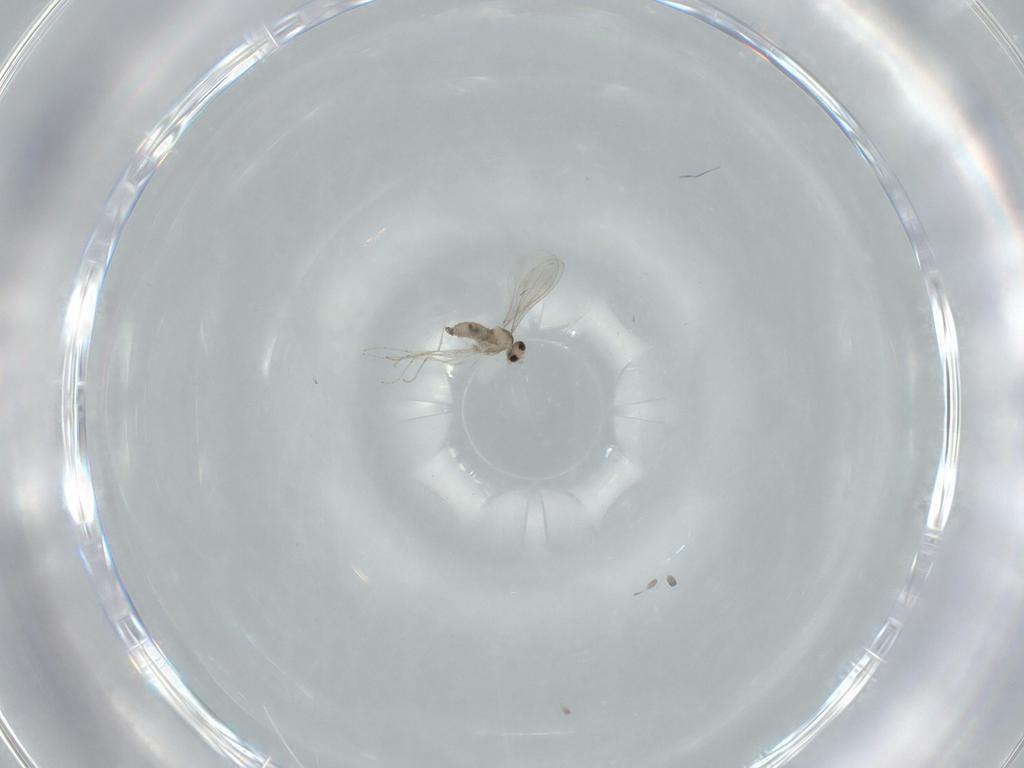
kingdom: Animalia
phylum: Arthropoda
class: Insecta
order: Diptera
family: Cecidomyiidae
